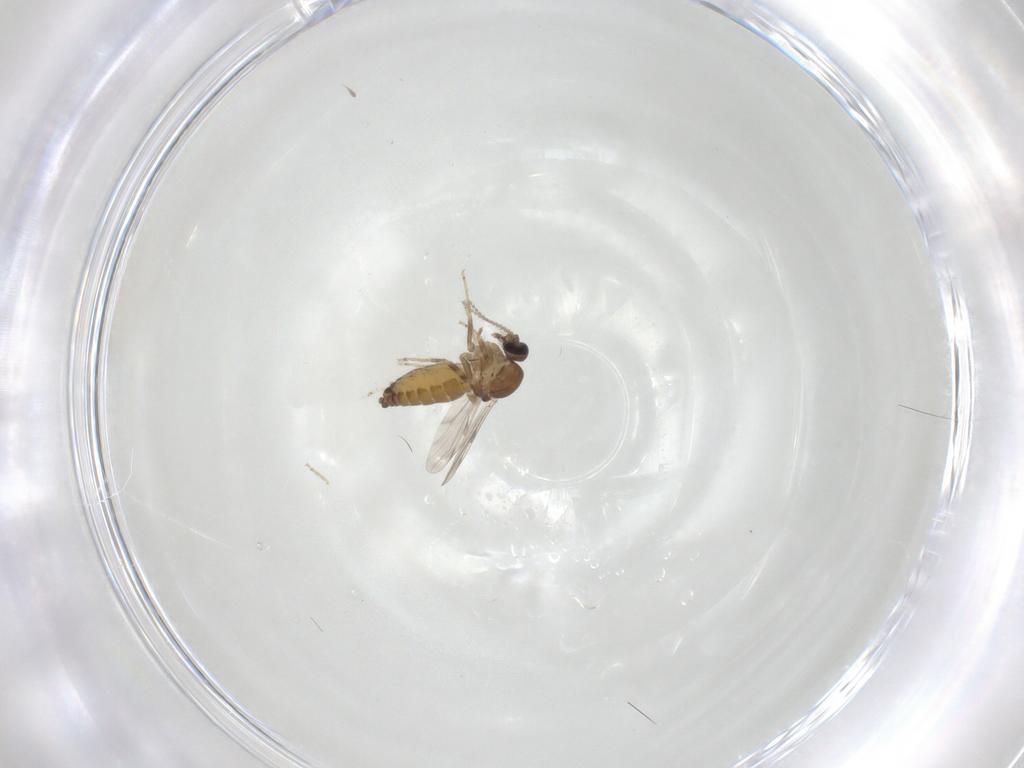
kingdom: Animalia
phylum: Arthropoda
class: Insecta
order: Diptera
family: Ceratopogonidae
